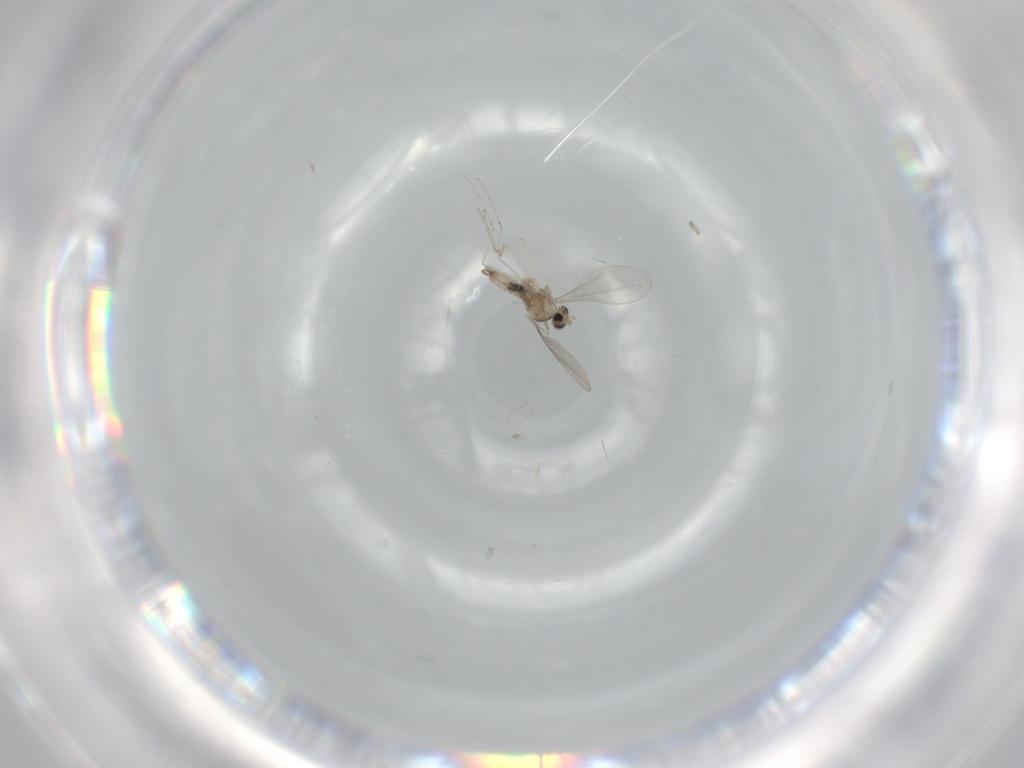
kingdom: Animalia
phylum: Arthropoda
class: Insecta
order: Diptera
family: Cecidomyiidae
